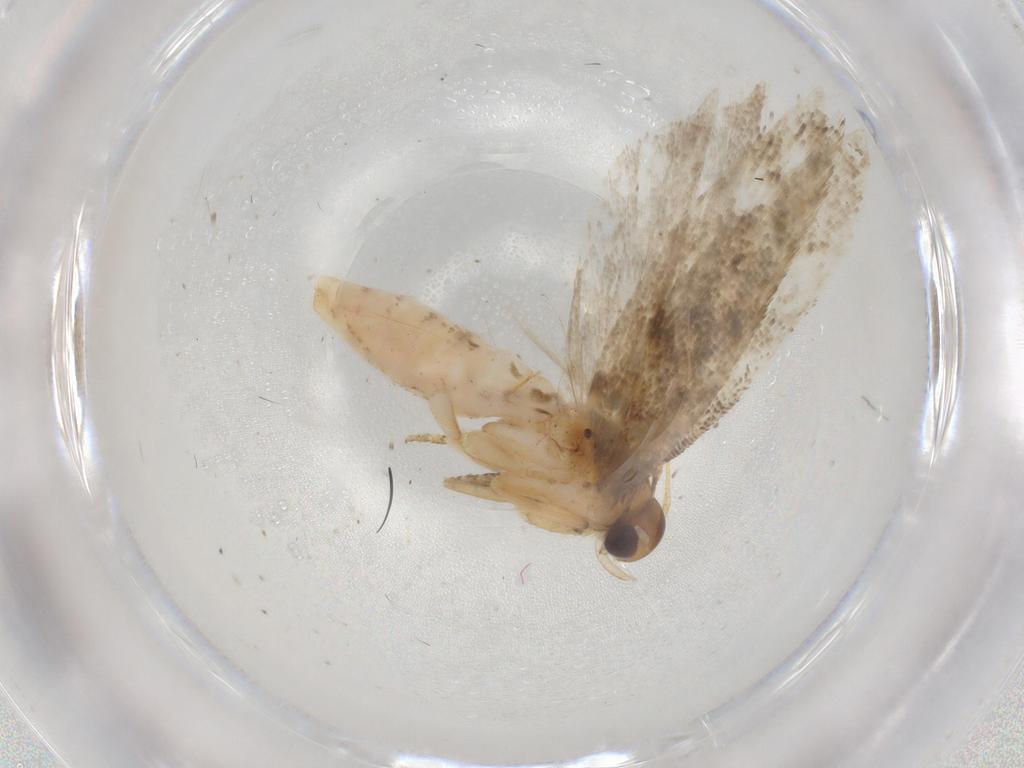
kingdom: Animalia
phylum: Arthropoda
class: Insecta
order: Lepidoptera
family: Gelechiidae
